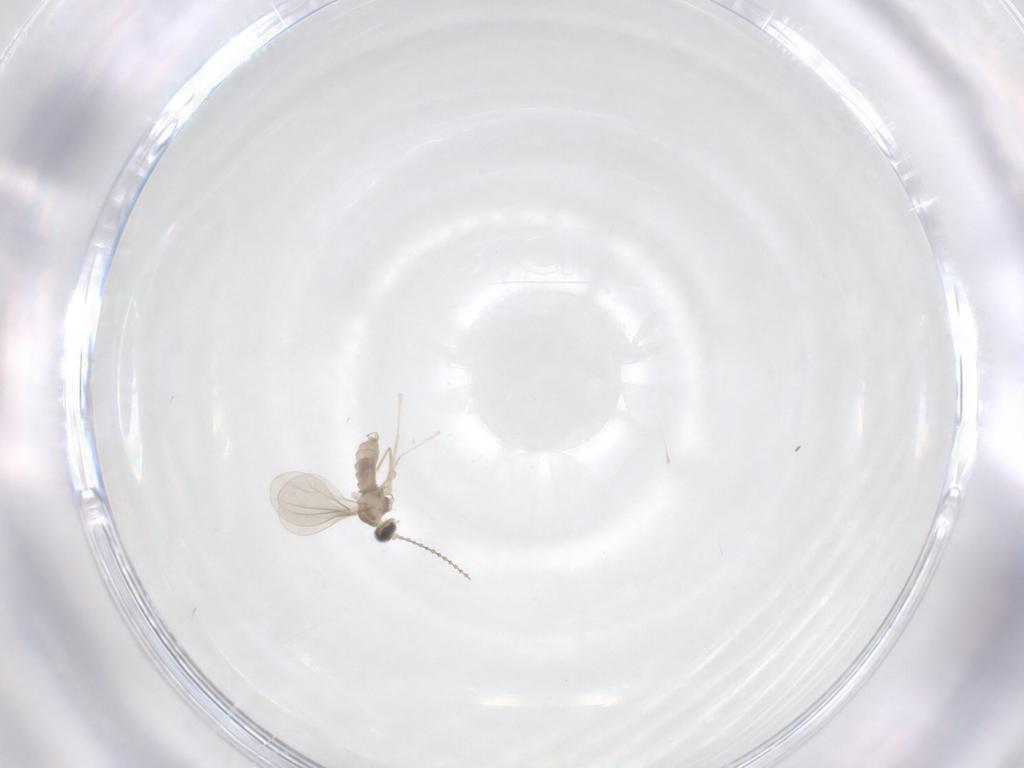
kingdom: Animalia
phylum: Arthropoda
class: Insecta
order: Diptera
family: Cecidomyiidae
